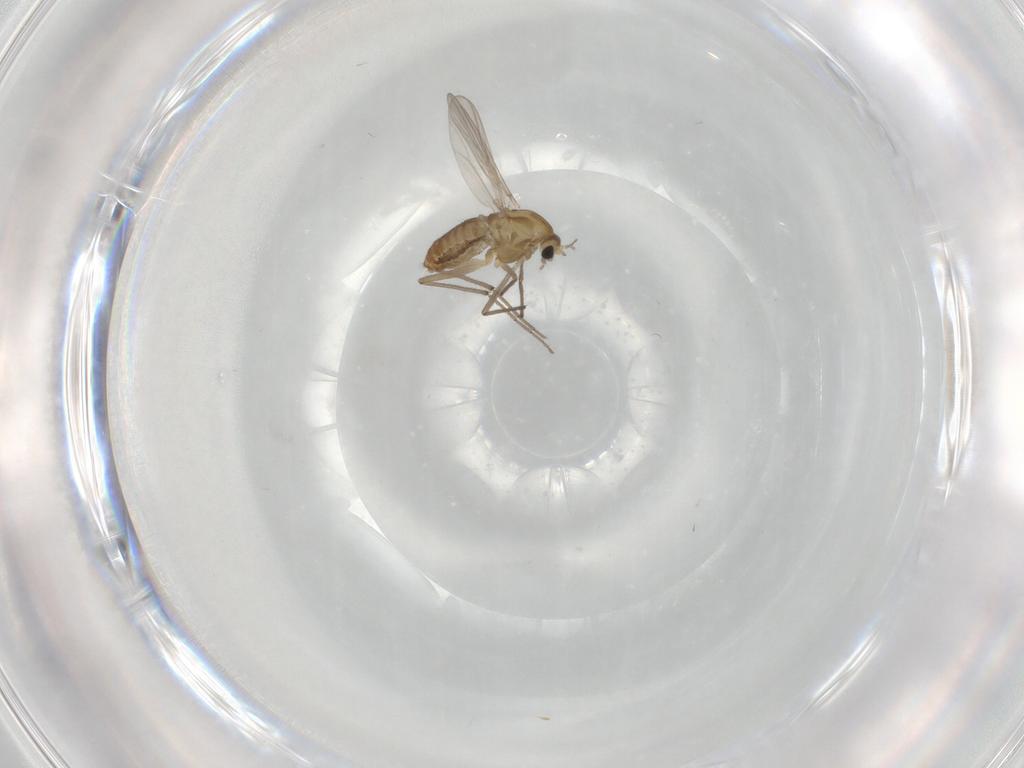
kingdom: Animalia
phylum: Arthropoda
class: Insecta
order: Diptera
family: Chironomidae
